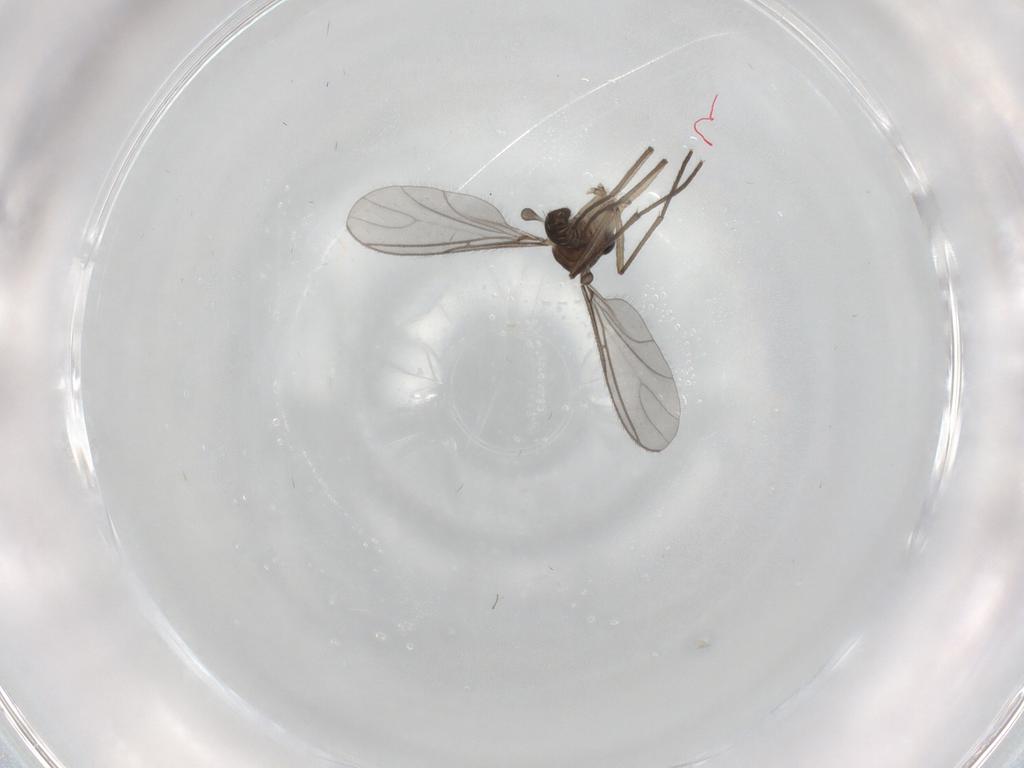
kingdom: Animalia
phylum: Arthropoda
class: Insecta
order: Diptera
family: Sciaridae
